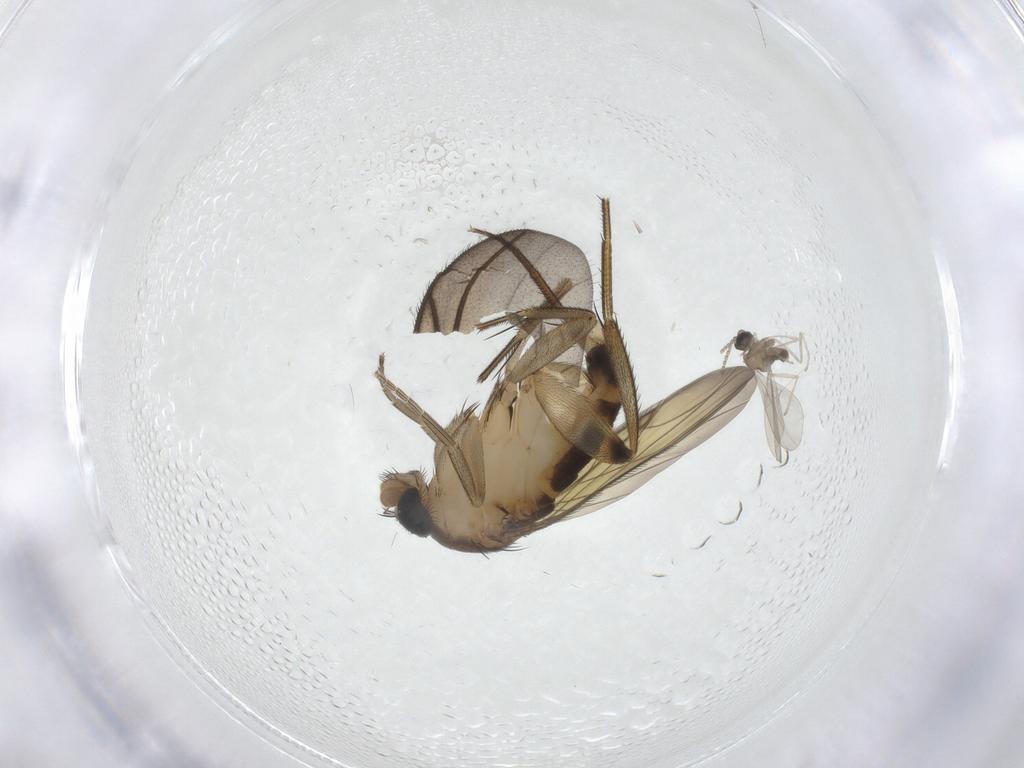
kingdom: Animalia
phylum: Arthropoda
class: Insecta
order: Diptera
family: Phoridae
